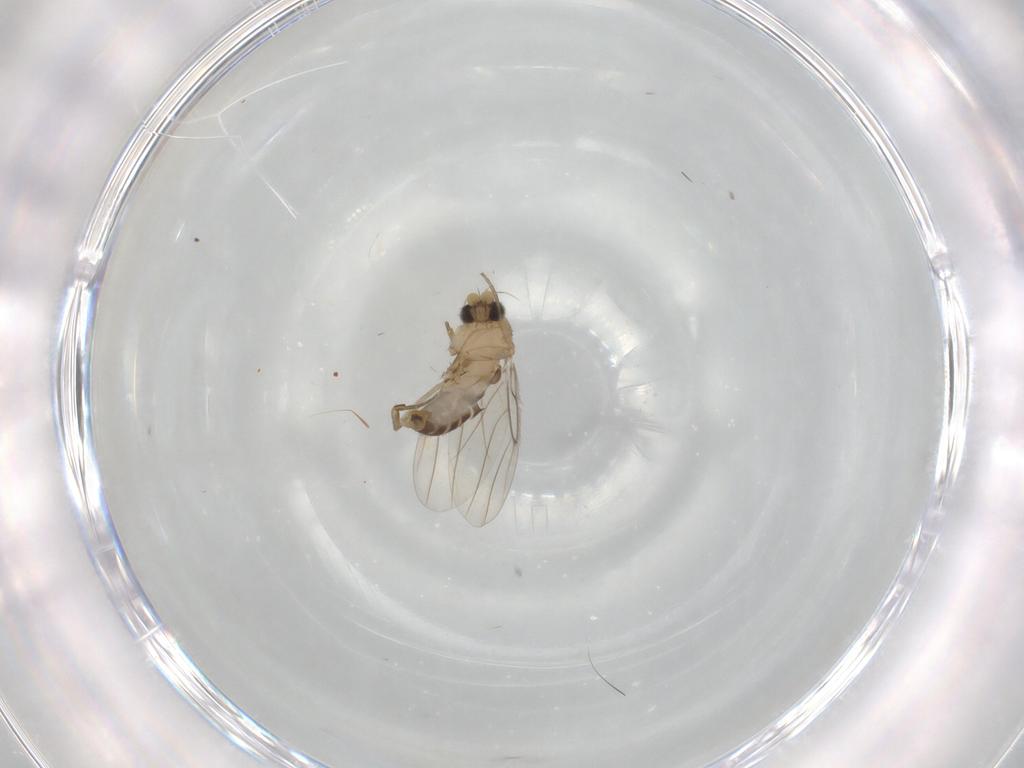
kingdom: Animalia
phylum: Arthropoda
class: Insecta
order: Diptera
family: Phoridae
